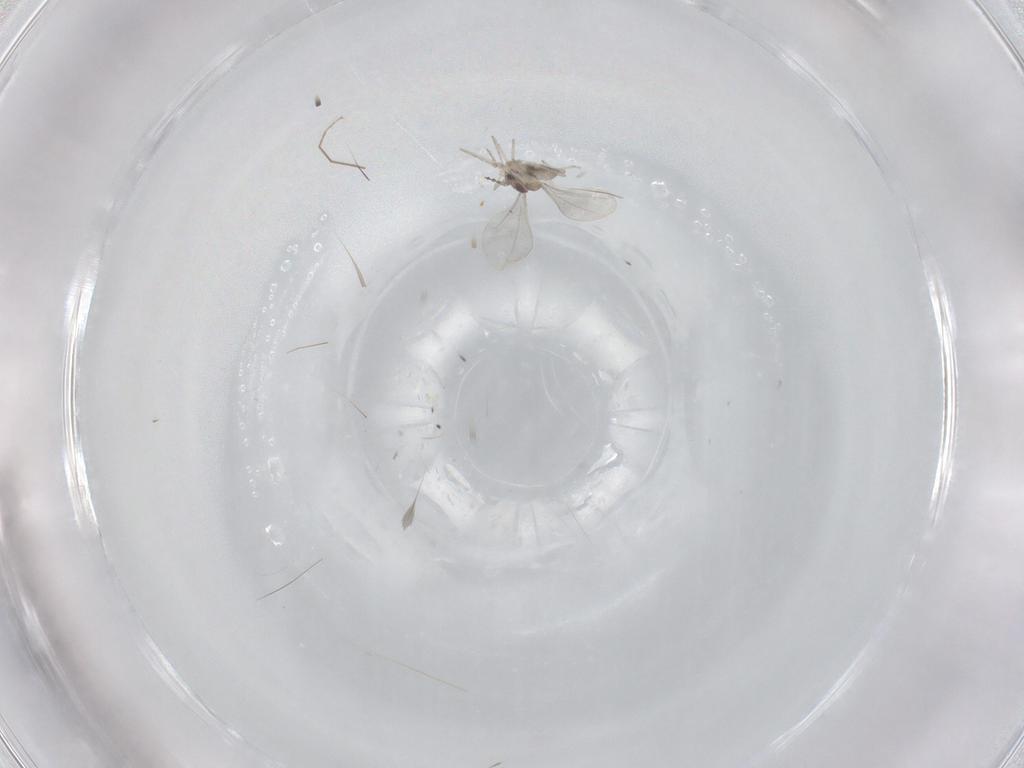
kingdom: Animalia
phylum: Arthropoda
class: Insecta
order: Diptera
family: Cecidomyiidae
